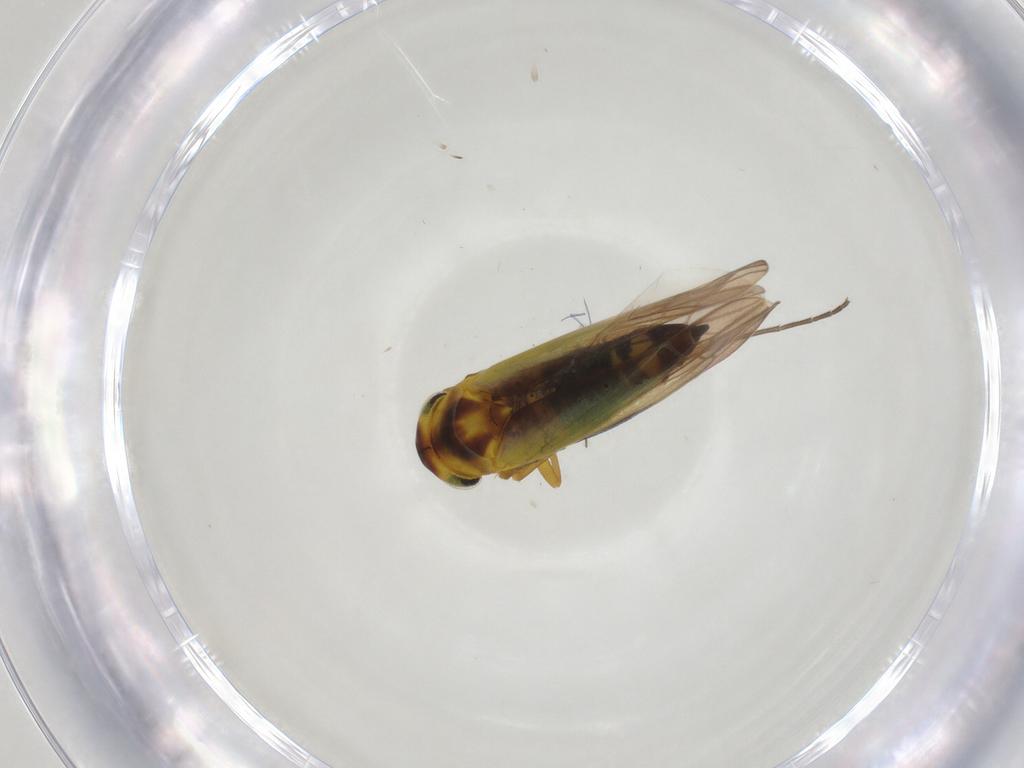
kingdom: Animalia
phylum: Arthropoda
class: Insecta
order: Hemiptera
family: Cicadellidae
